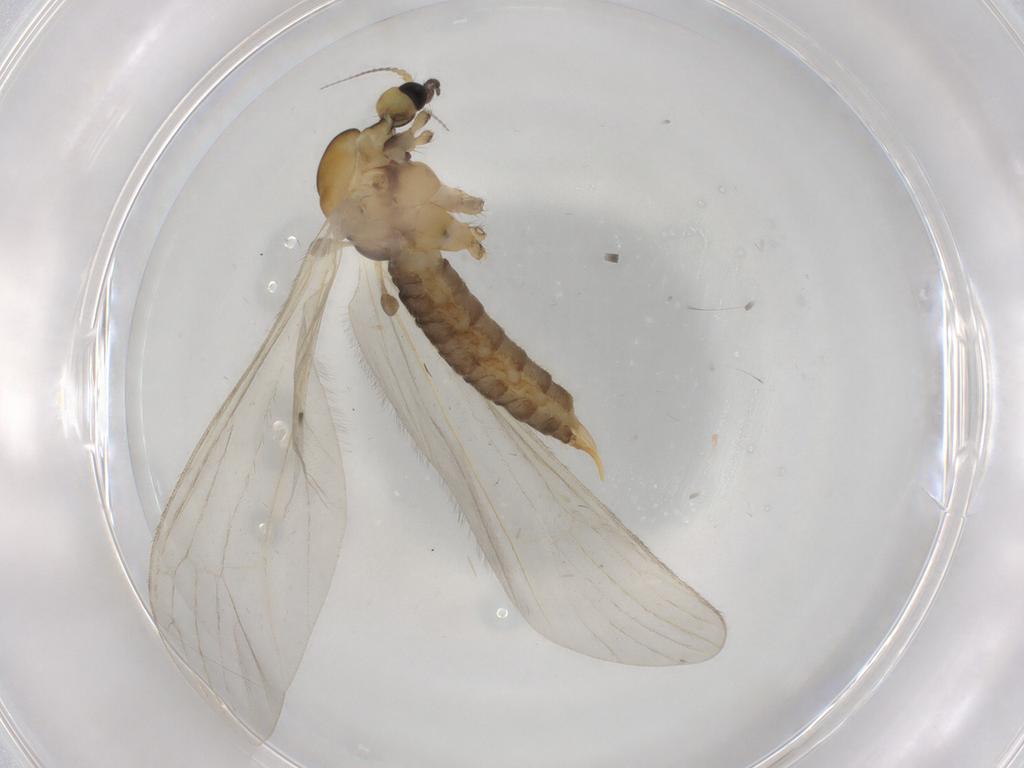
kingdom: Animalia
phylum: Arthropoda
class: Insecta
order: Diptera
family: Limoniidae
